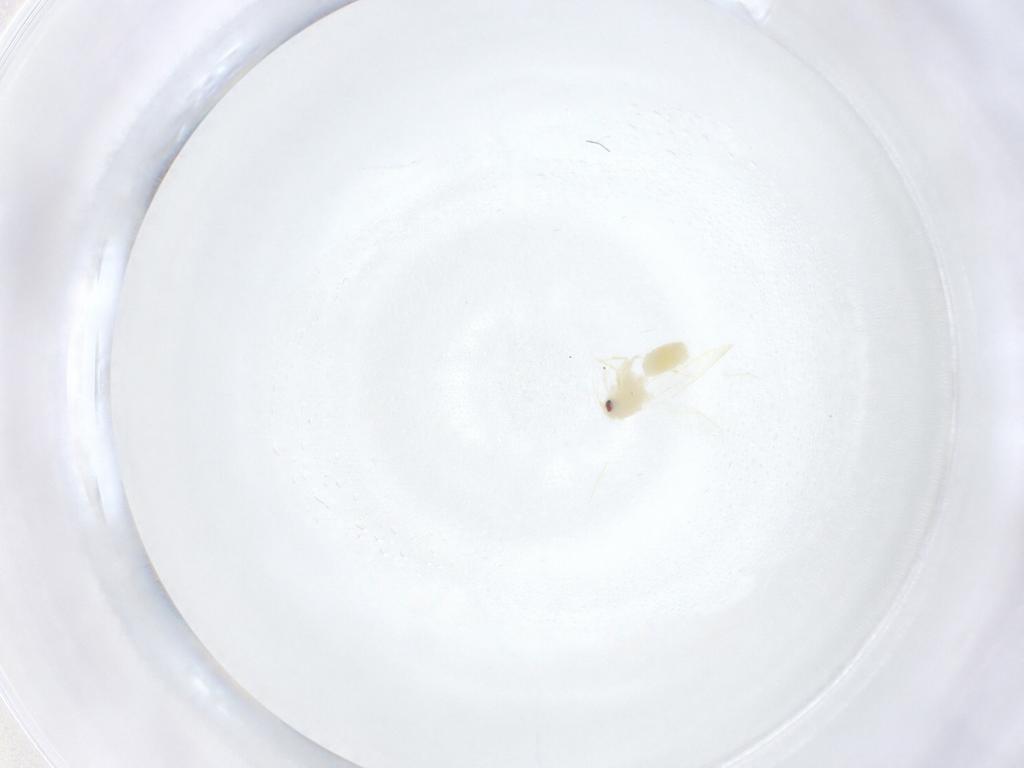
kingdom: Animalia
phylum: Arthropoda
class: Insecta
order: Hemiptera
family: Aleyrodidae
